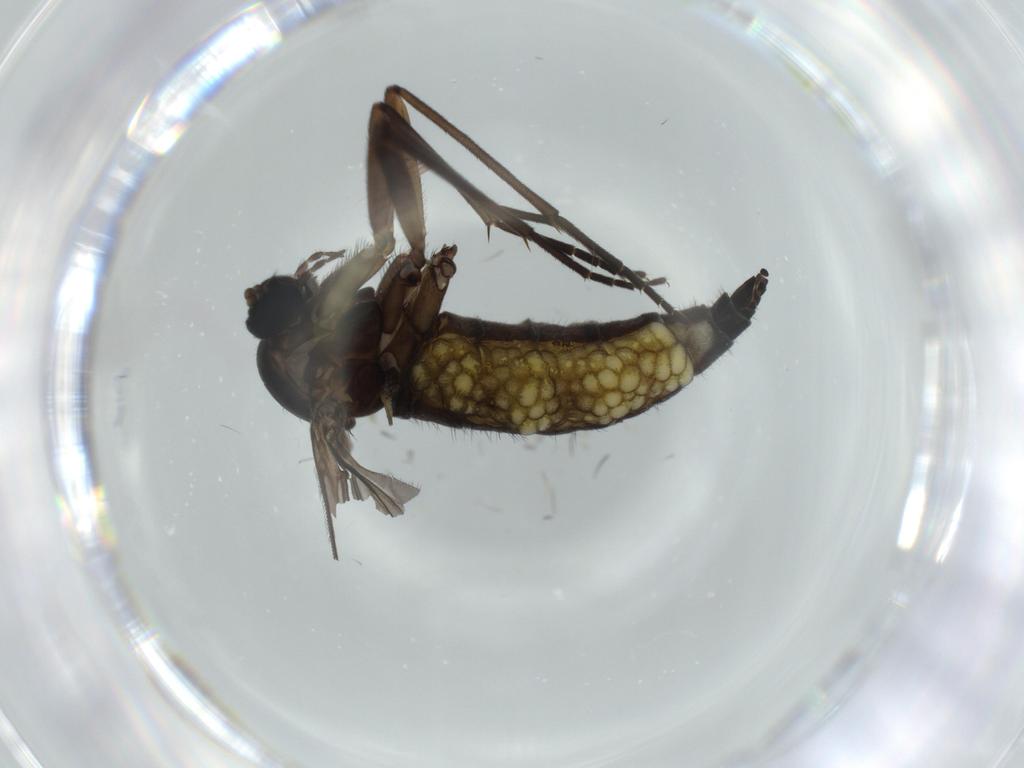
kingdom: Animalia
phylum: Arthropoda
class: Insecta
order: Diptera
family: Sciaridae
